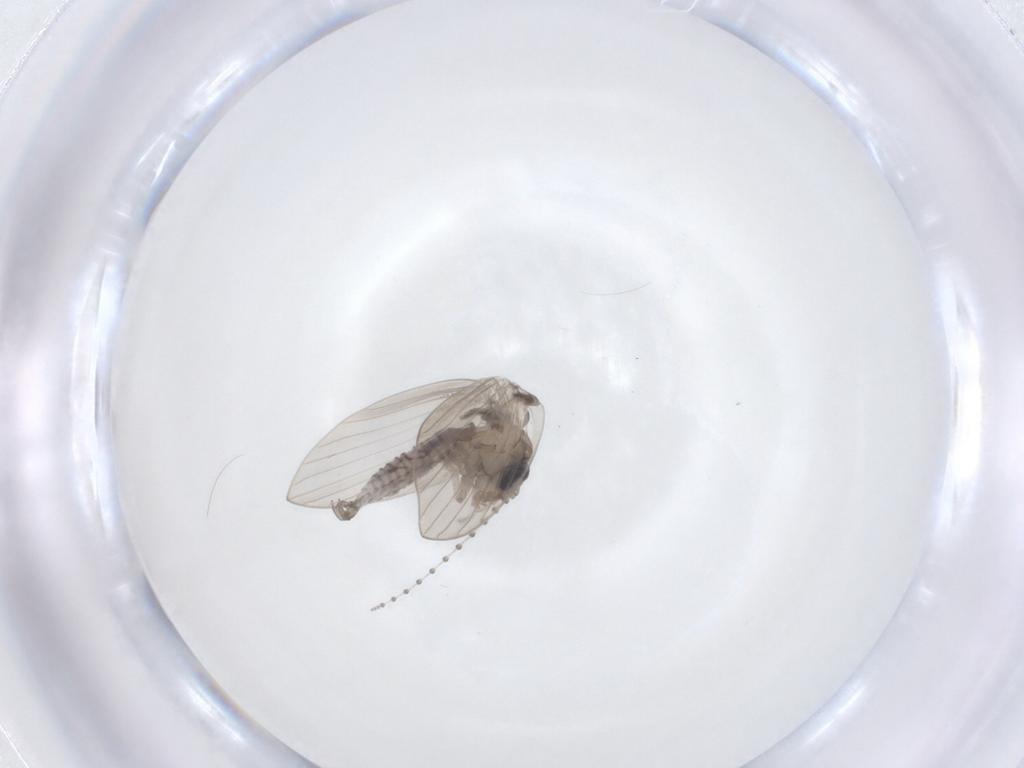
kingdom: Animalia
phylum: Arthropoda
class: Insecta
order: Diptera
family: Psychodidae
